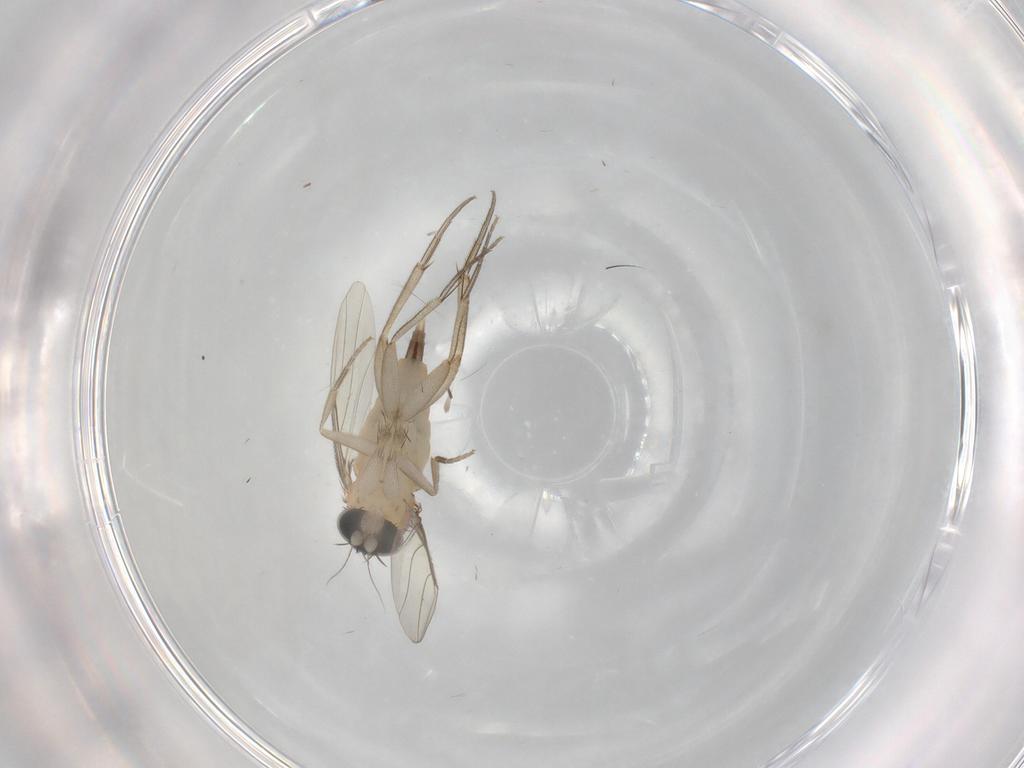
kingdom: Animalia
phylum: Arthropoda
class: Insecta
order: Diptera
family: Phoridae
